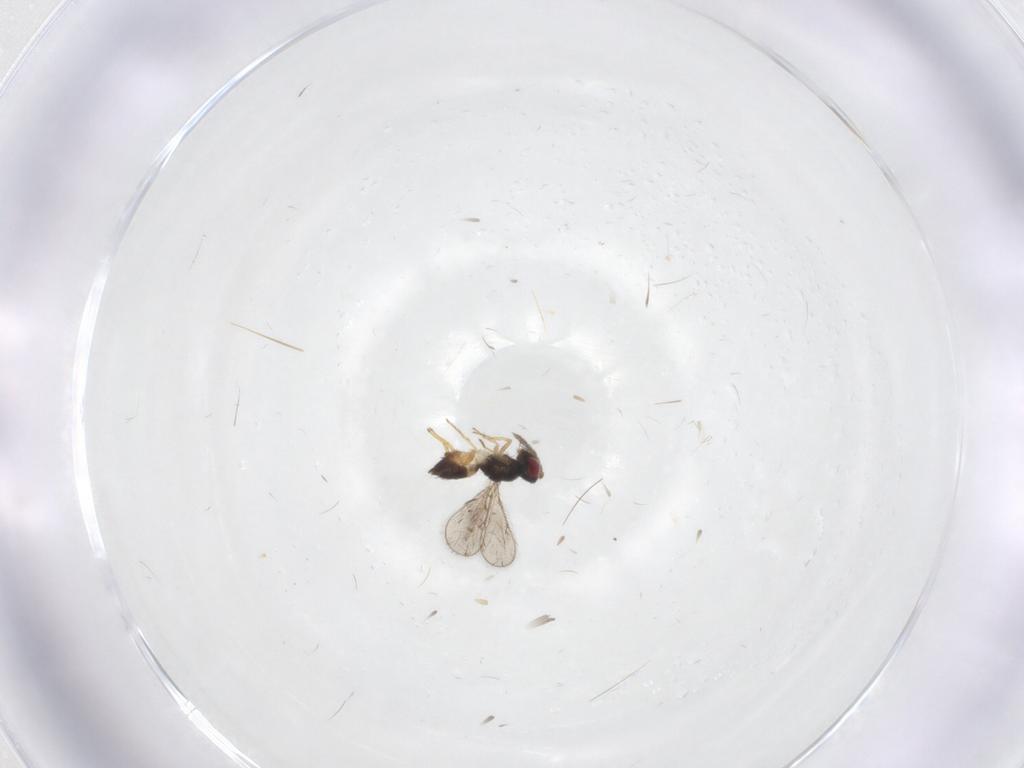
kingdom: Animalia
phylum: Arthropoda
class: Insecta
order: Hymenoptera
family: Eulophidae
